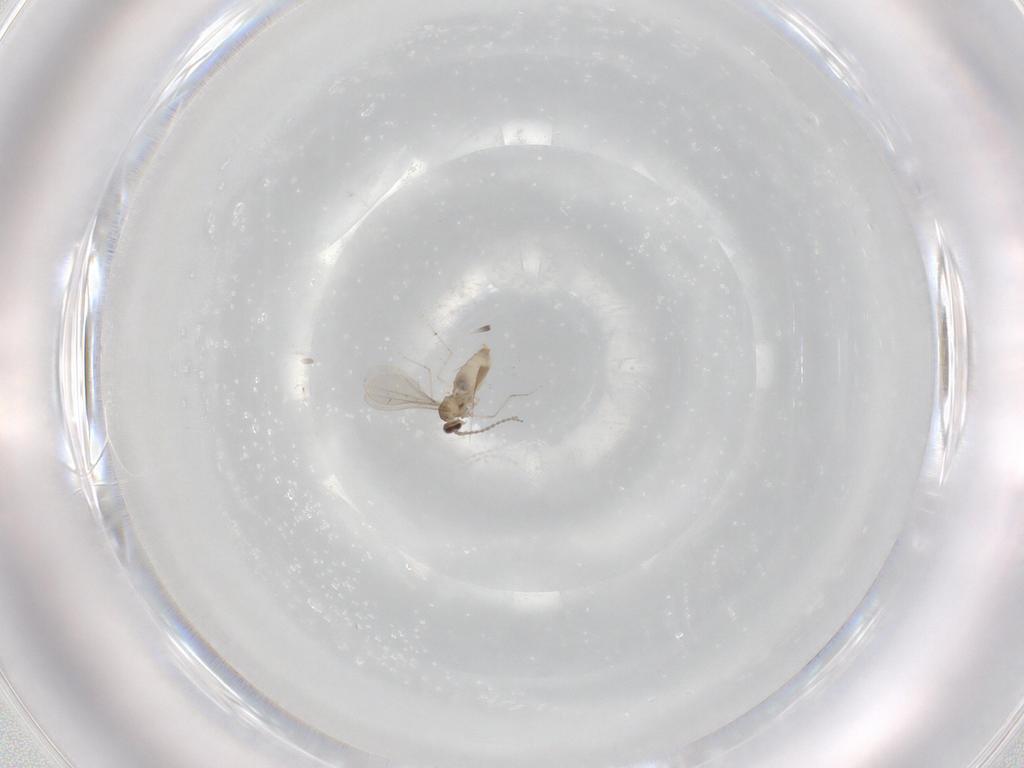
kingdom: Animalia
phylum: Arthropoda
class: Insecta
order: Diptera
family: Cecidomyiidae
